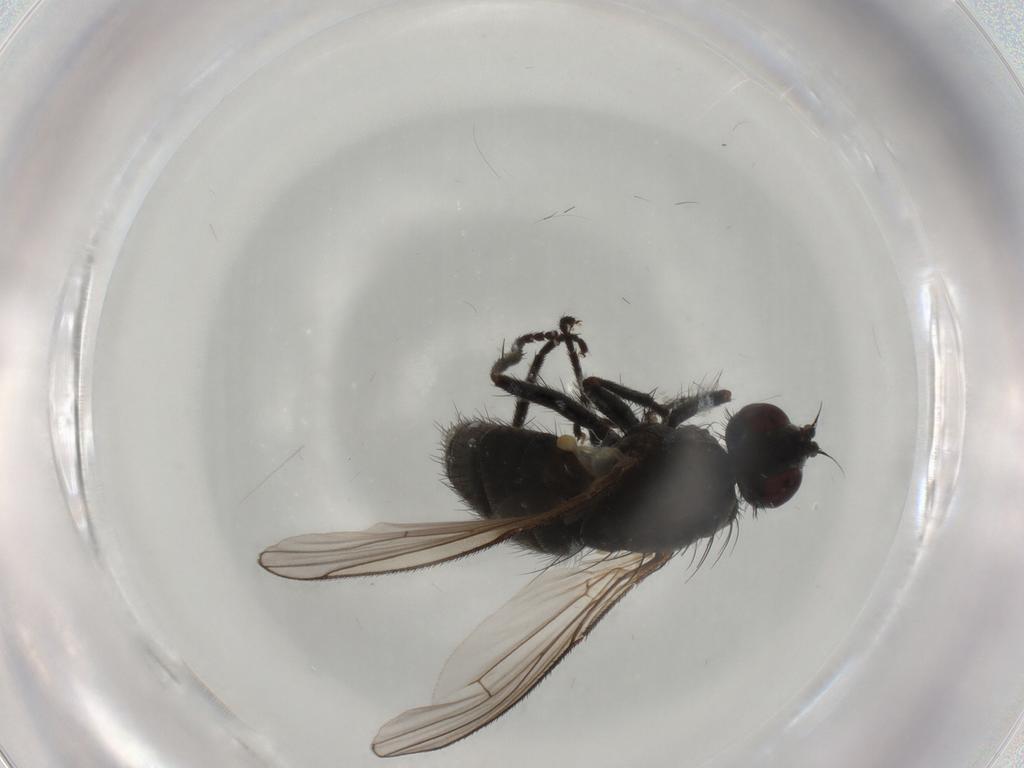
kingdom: Animalia
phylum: Arthropoda
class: Insecta
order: Diptera
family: Muscidae
